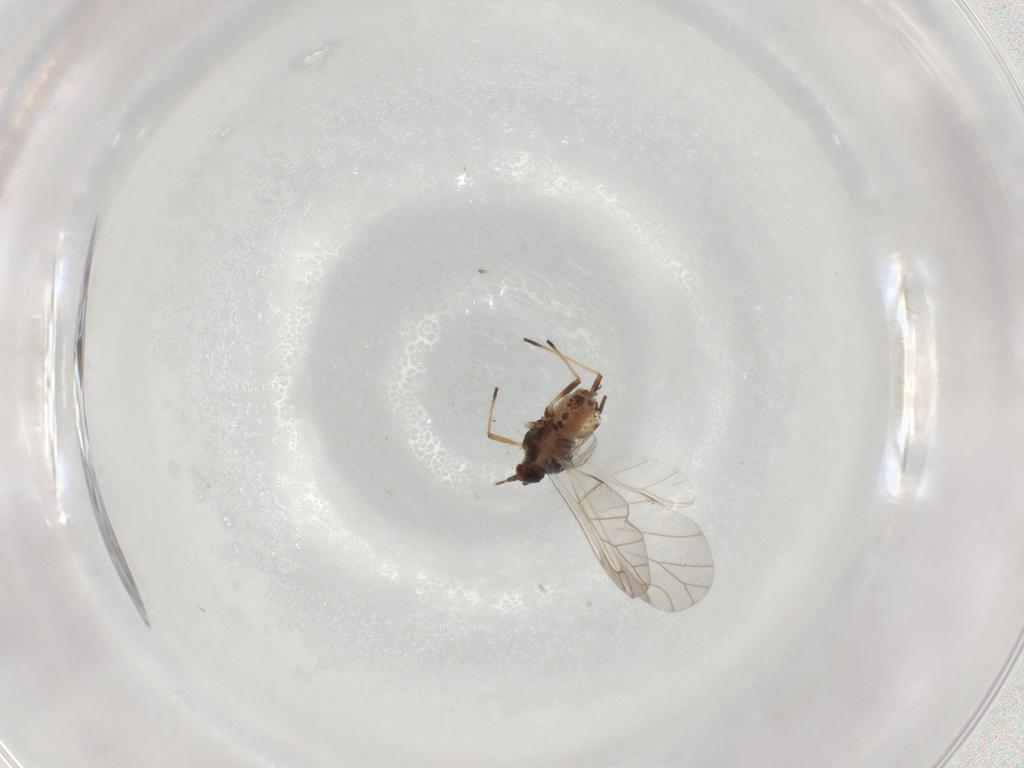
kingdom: Animalia
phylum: Arthropoda
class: Insecta
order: Hemiptera
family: Aphididae
